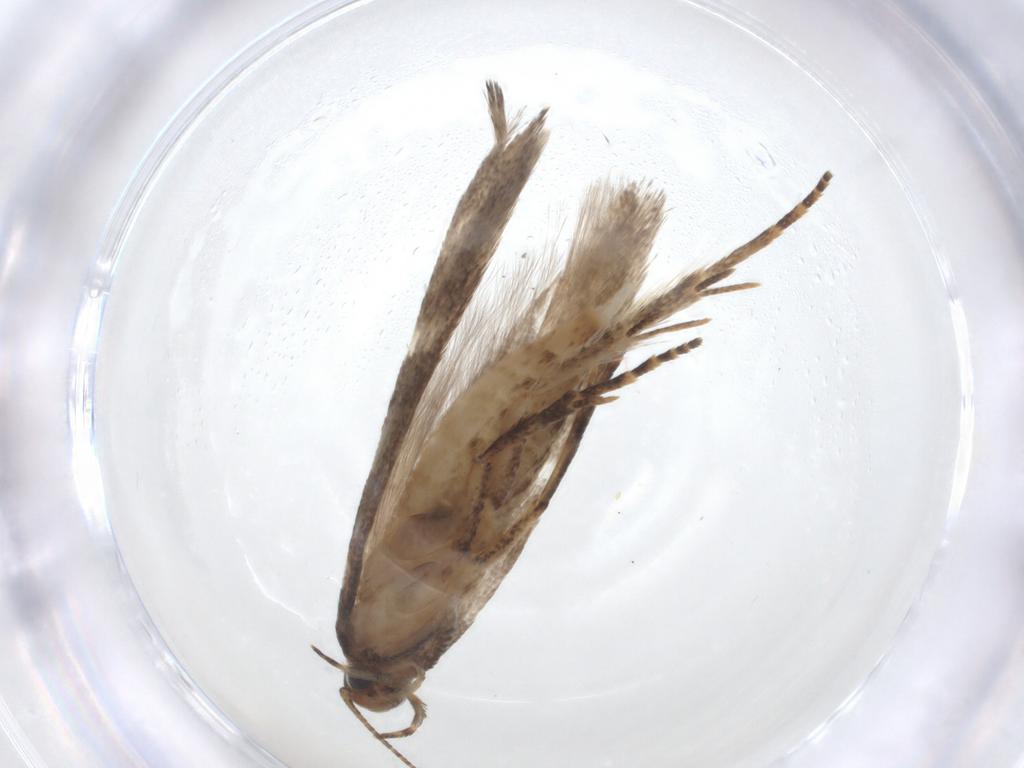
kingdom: Animalia
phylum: Arthropoda
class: Insecta
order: Lepidoptera
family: Gelechiidae
